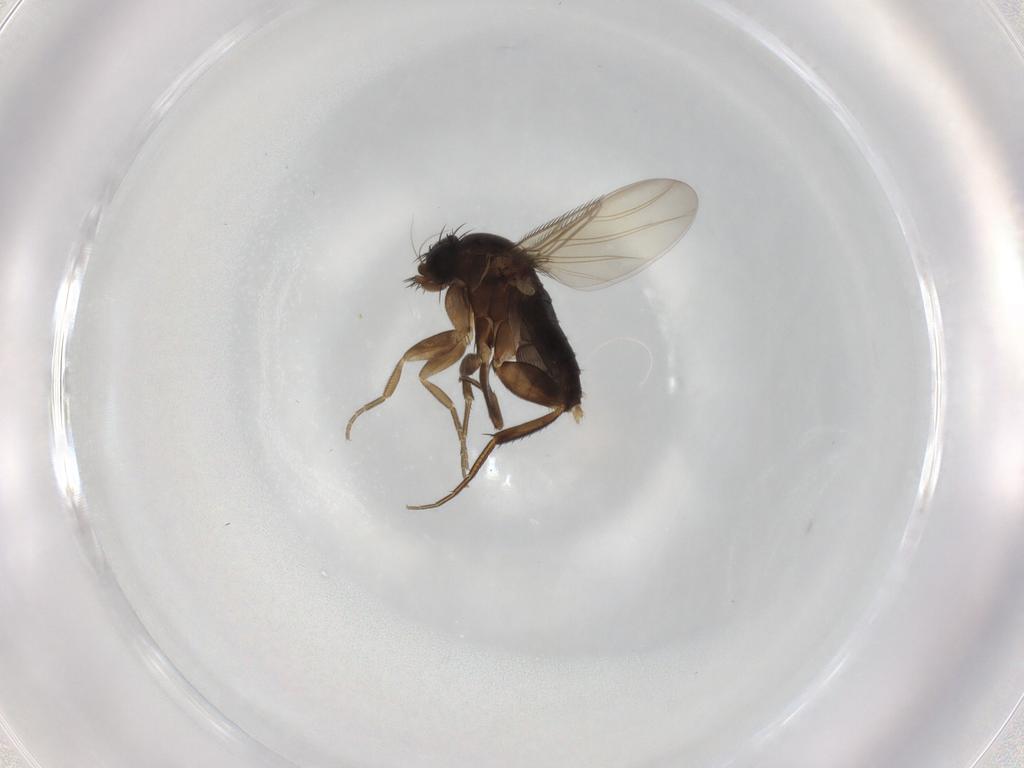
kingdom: Animalia
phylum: Arthropoda
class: Insecta
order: Diptera
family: Phoridae
